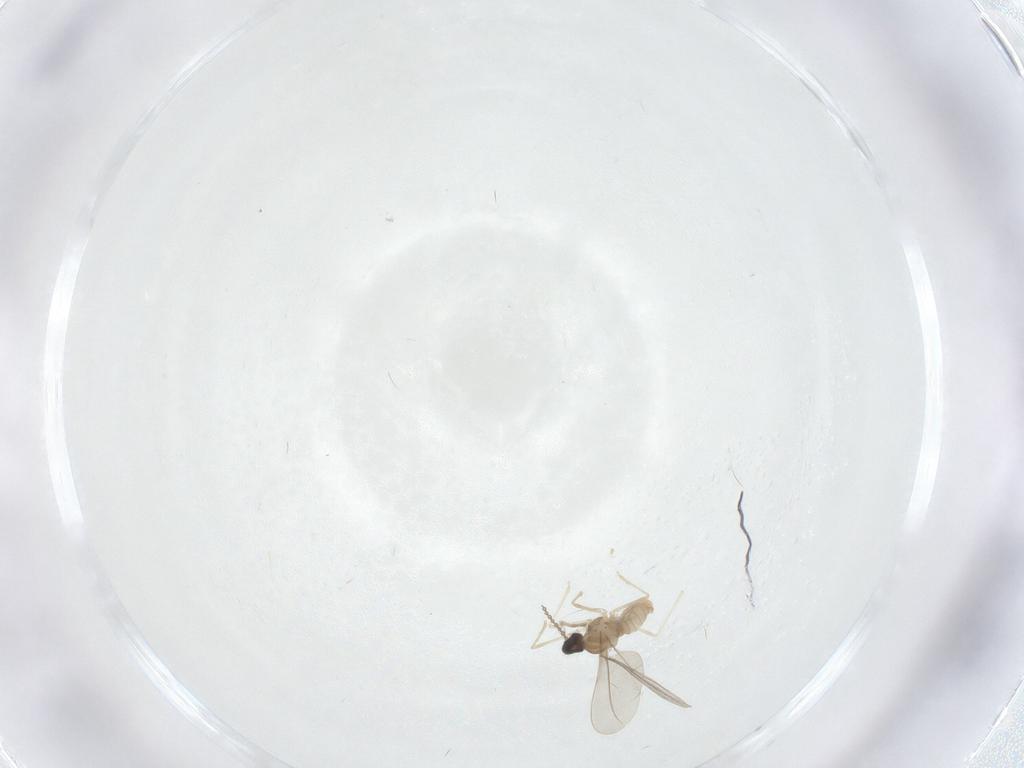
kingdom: Animalia
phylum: Arthropoda
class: Insecta
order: Diptera
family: Cecidomyiidae
